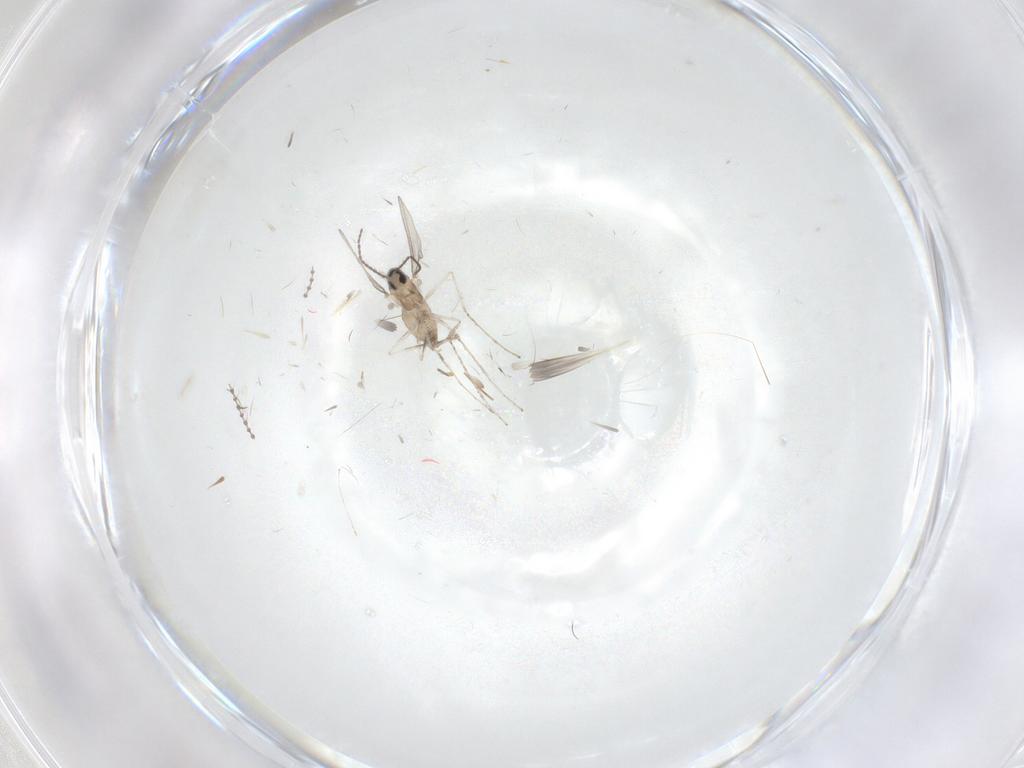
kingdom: Animalia
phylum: Arthropoda
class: Insecta
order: Diptera
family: Cecidomyiidae
